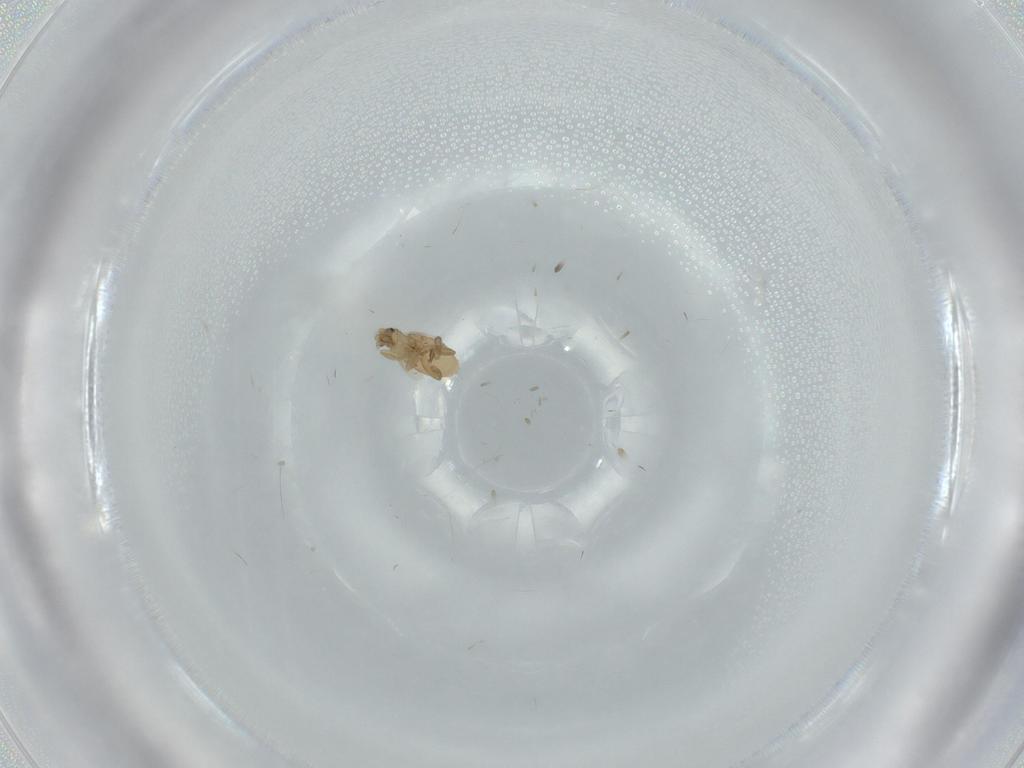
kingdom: Animalia
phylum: Arthropoda
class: Insecta
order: Diptera
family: Phoridae
